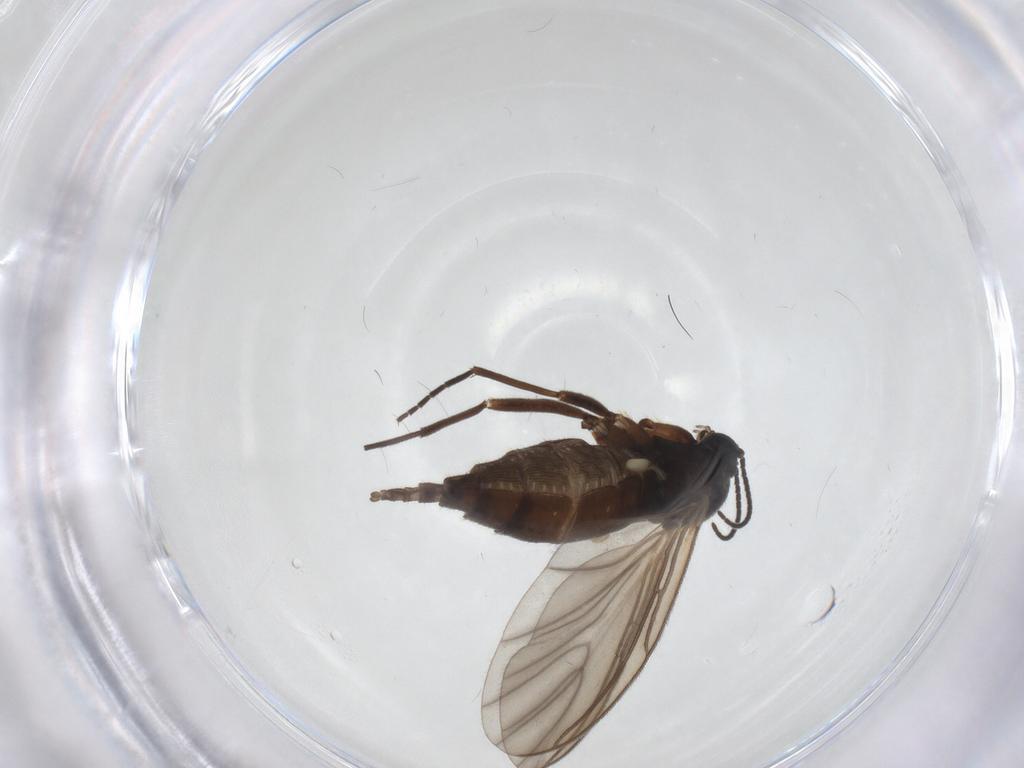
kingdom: Animalia
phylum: Arthropoda
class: Insecta
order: Diptera
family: Sciaridae
